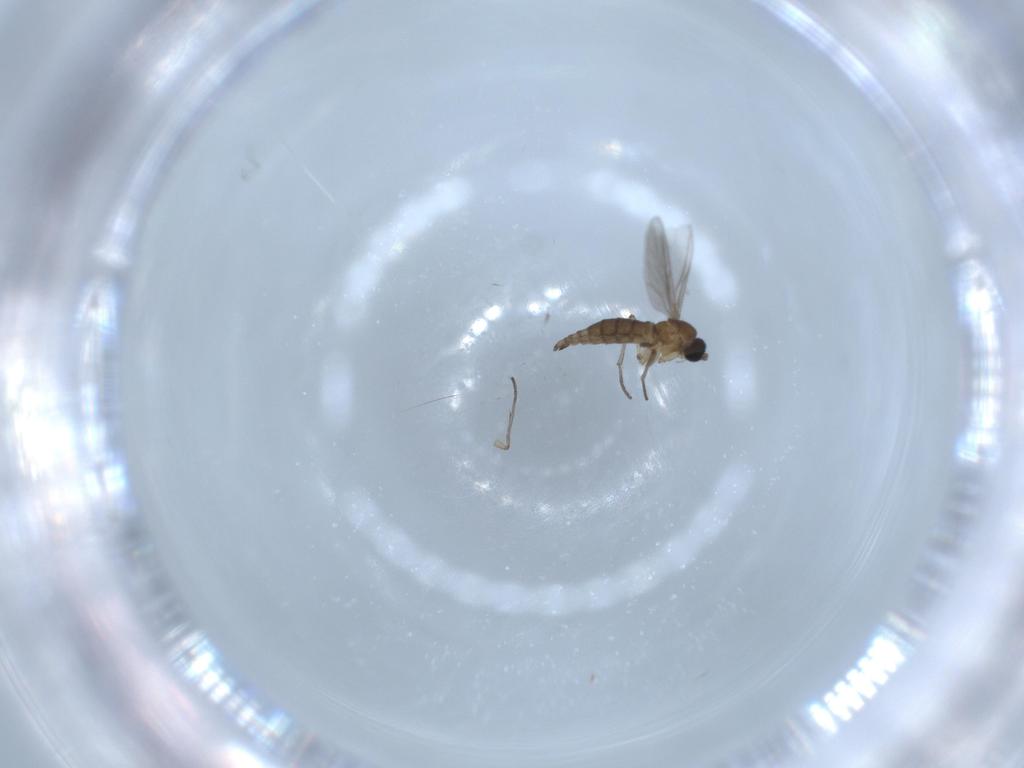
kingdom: Animalia
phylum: Arthropoda
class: Insecta
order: Diptera
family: Sciaridae
